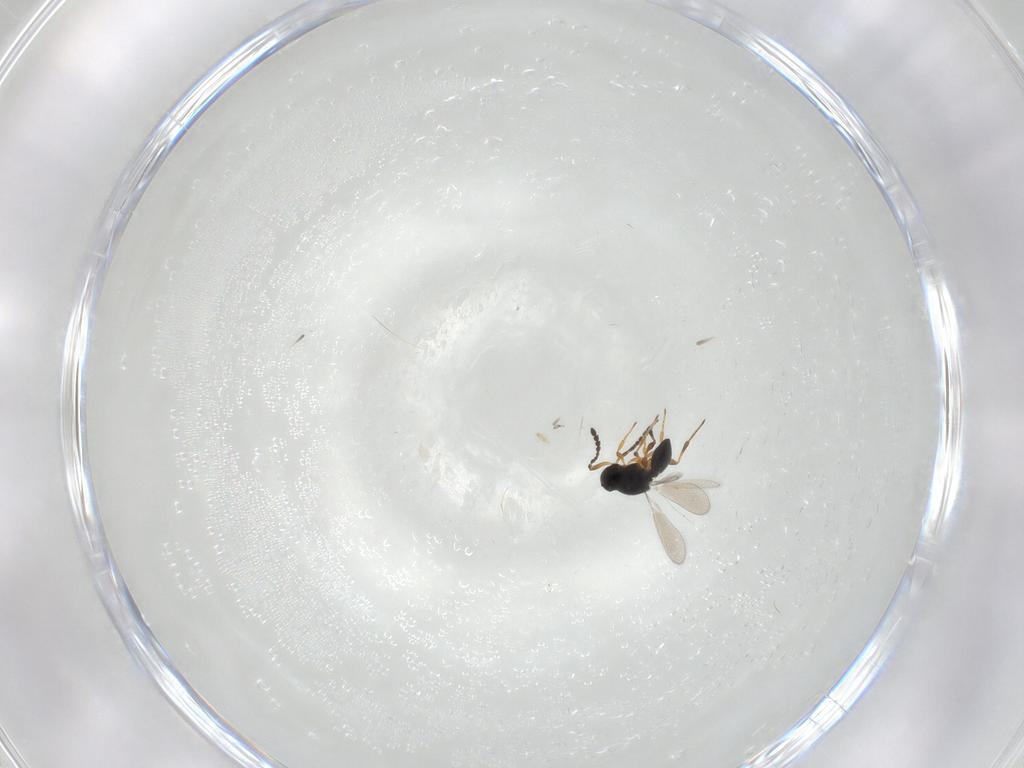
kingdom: Animalia
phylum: Arthropoda
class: Insecta
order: Hymenoptera
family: Platygastridae
